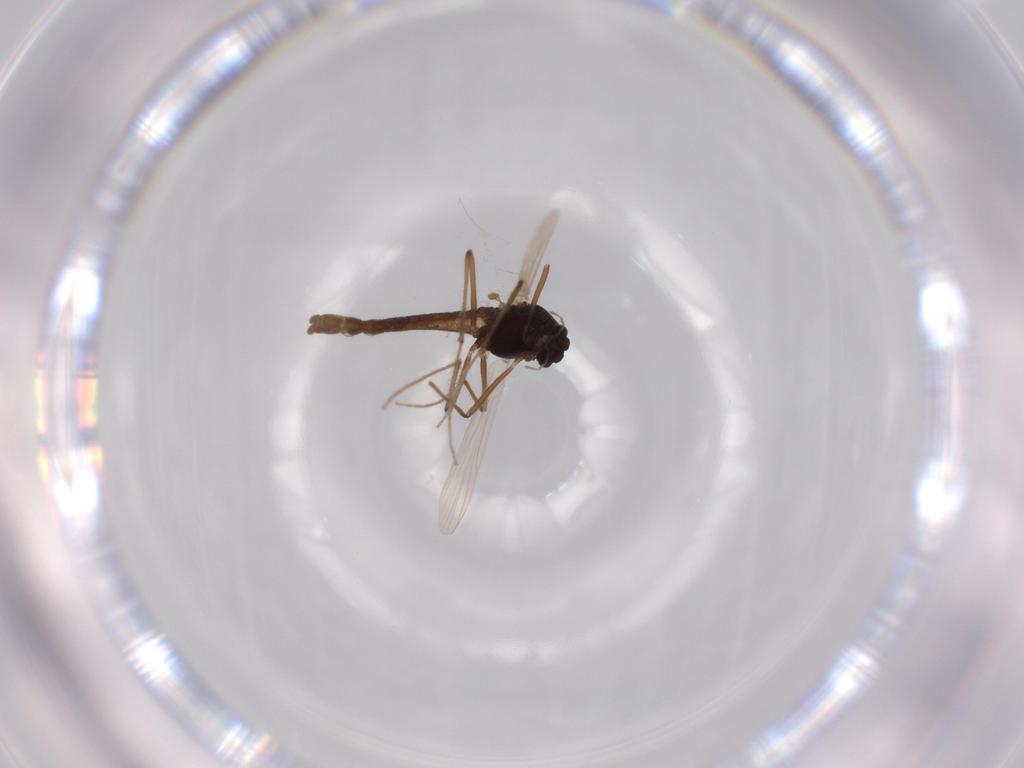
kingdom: Animalia
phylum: Arthropoda
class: Insecta
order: Diptera
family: Chironomidae
